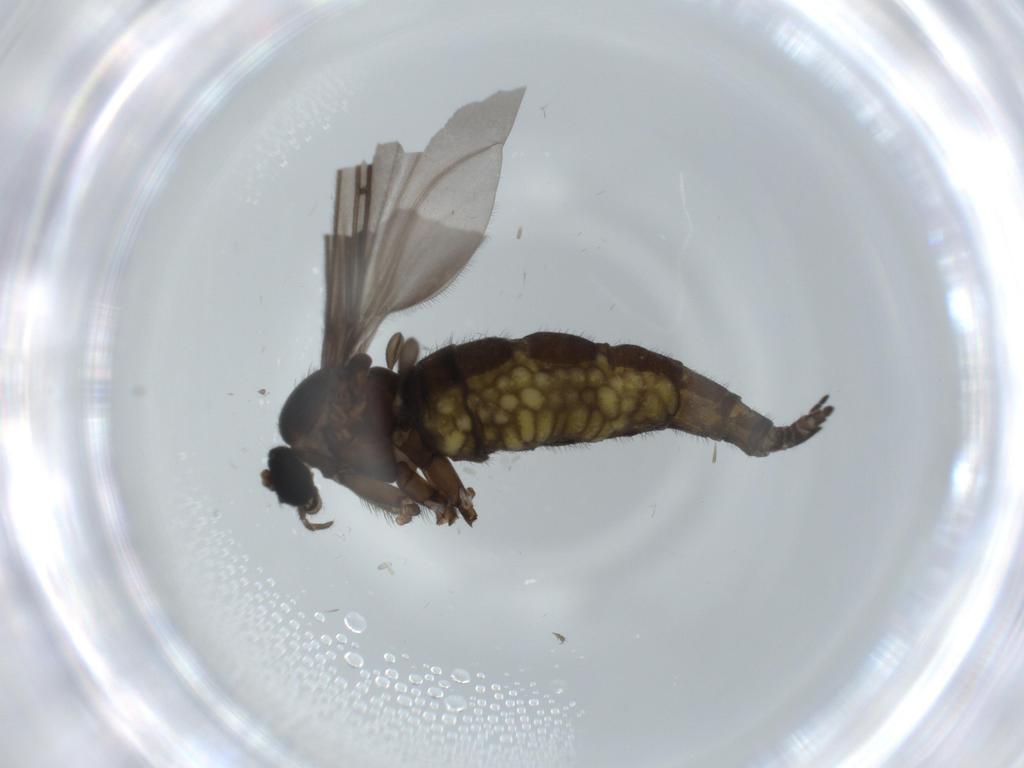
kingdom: Animalia
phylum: Arthropoda
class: Insecta
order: Diptera
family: Sciaridae
